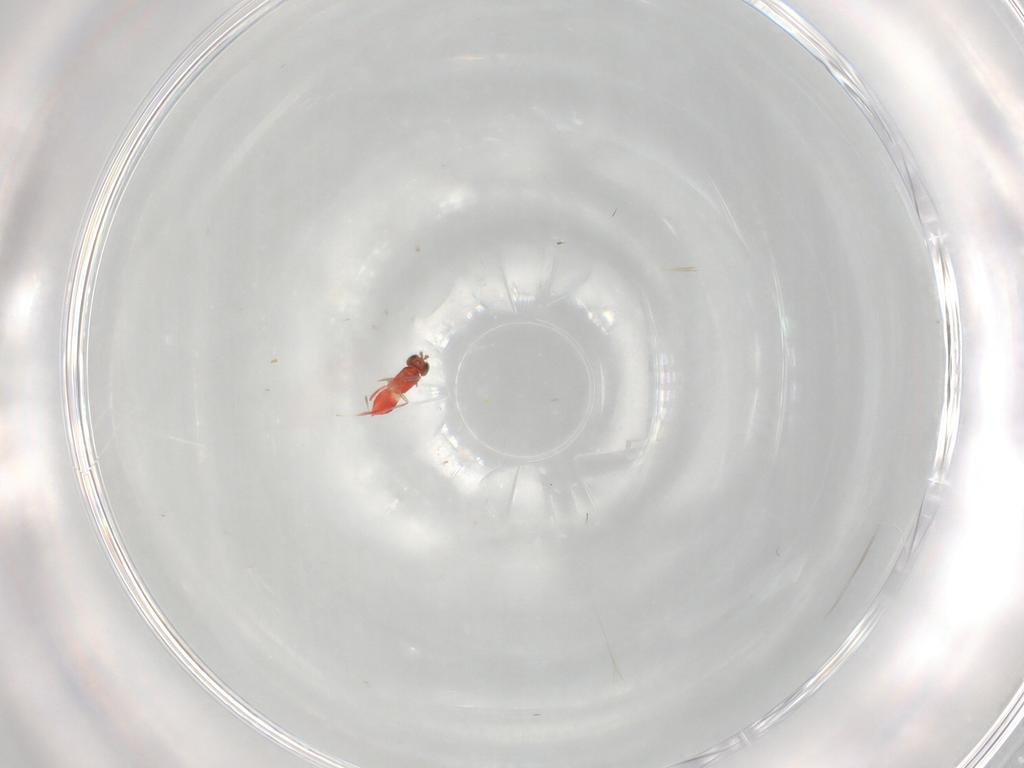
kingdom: Animalia
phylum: Arthropoda
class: Insecta
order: Hymenoptera
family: Trichogrammatidae
